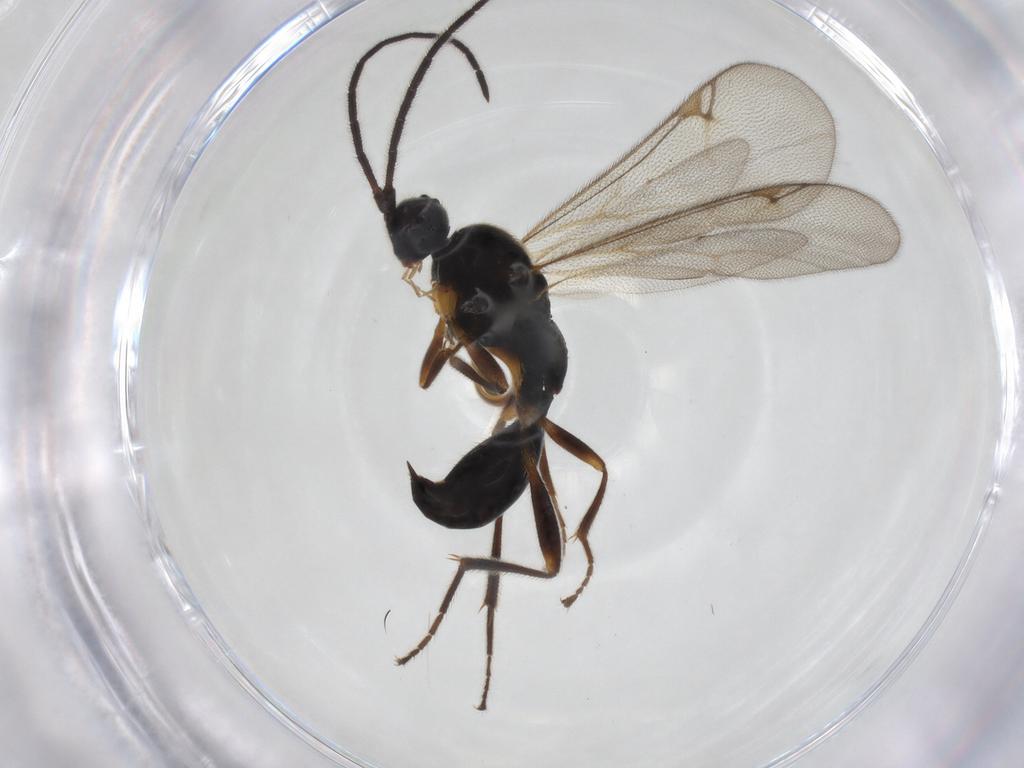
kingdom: Animalia
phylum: Arthropoda
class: Insecta
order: Hymenoptera
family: Proctotrupidae
